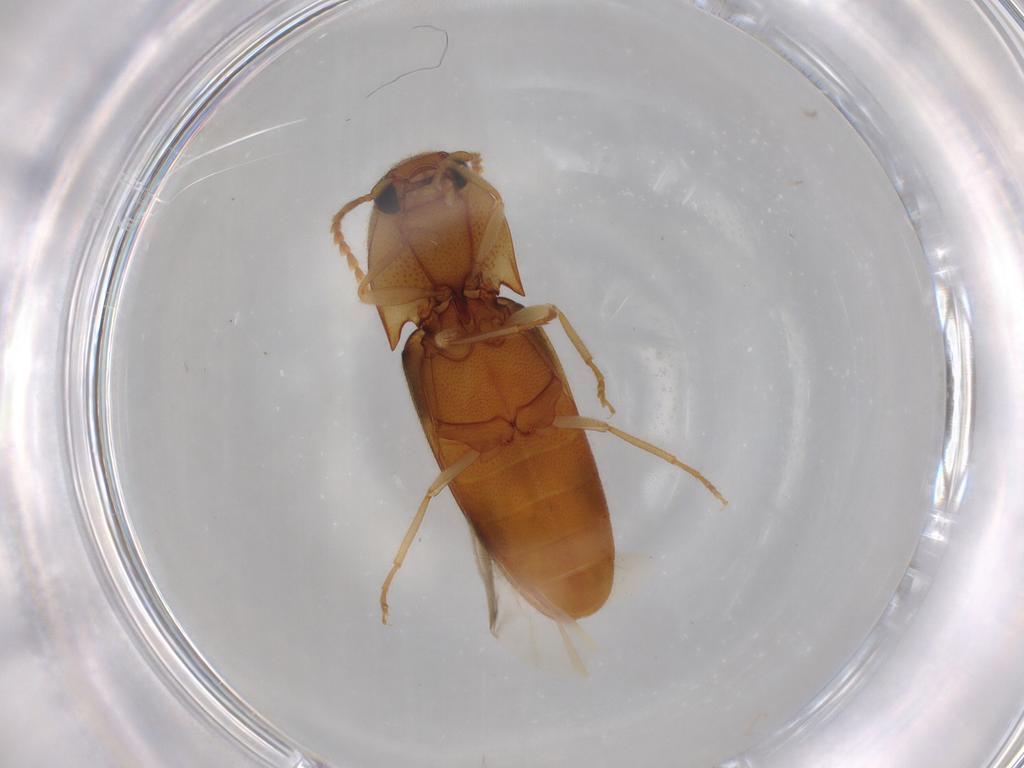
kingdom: Animalia
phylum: Arthropoda
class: Insecta
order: Coleoptera
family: Elateridae
